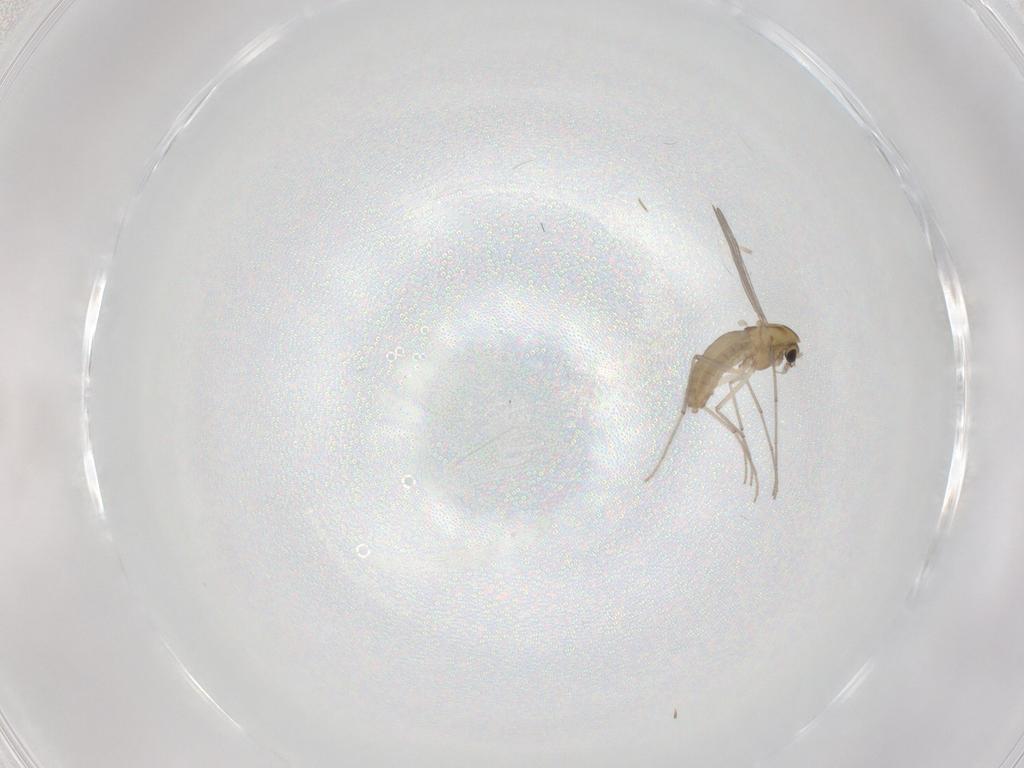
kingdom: Animalia
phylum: Arthropoda
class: Insecta
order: Diptera
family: Chironomidae
